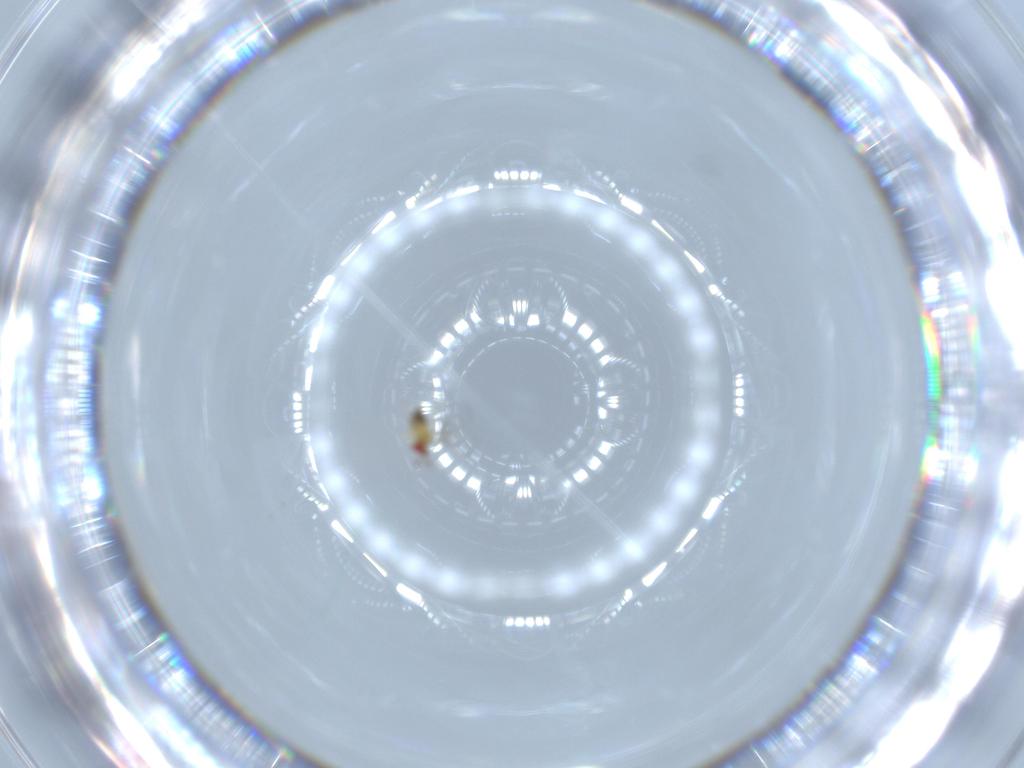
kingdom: Animalia
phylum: Arthropoda
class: Insecta
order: Hymenoptera
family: Trichogrammatidae
